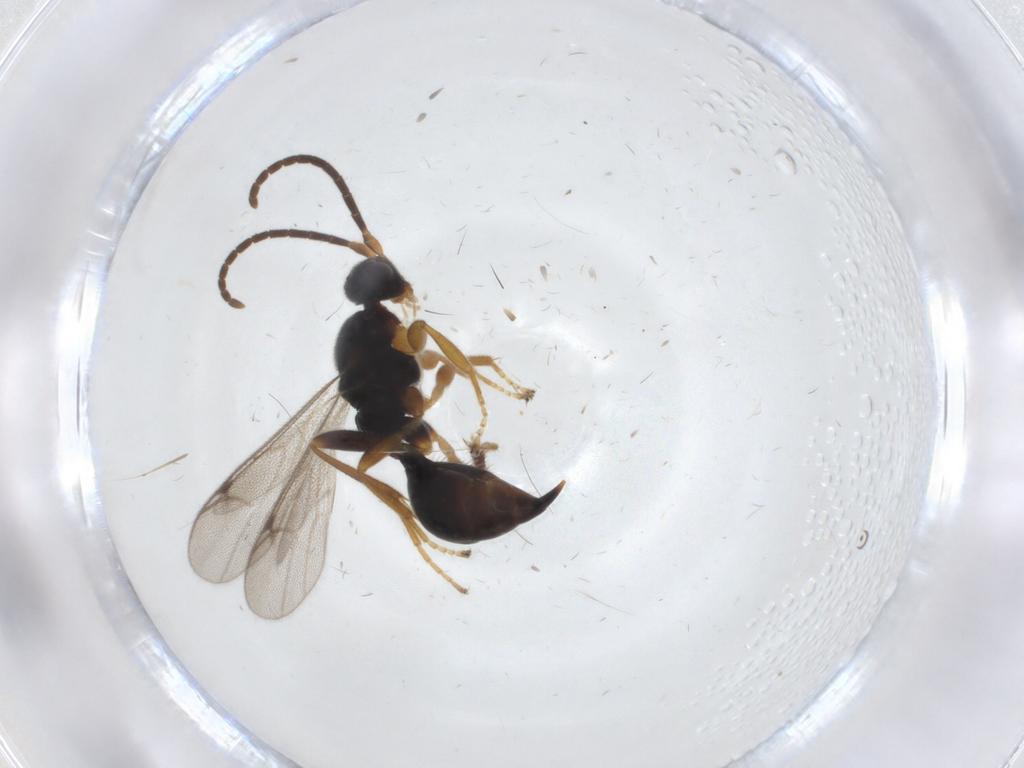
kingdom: Animalia
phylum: Arthropoda
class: Insecta
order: Hymenoptera
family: Proctotrupidae
